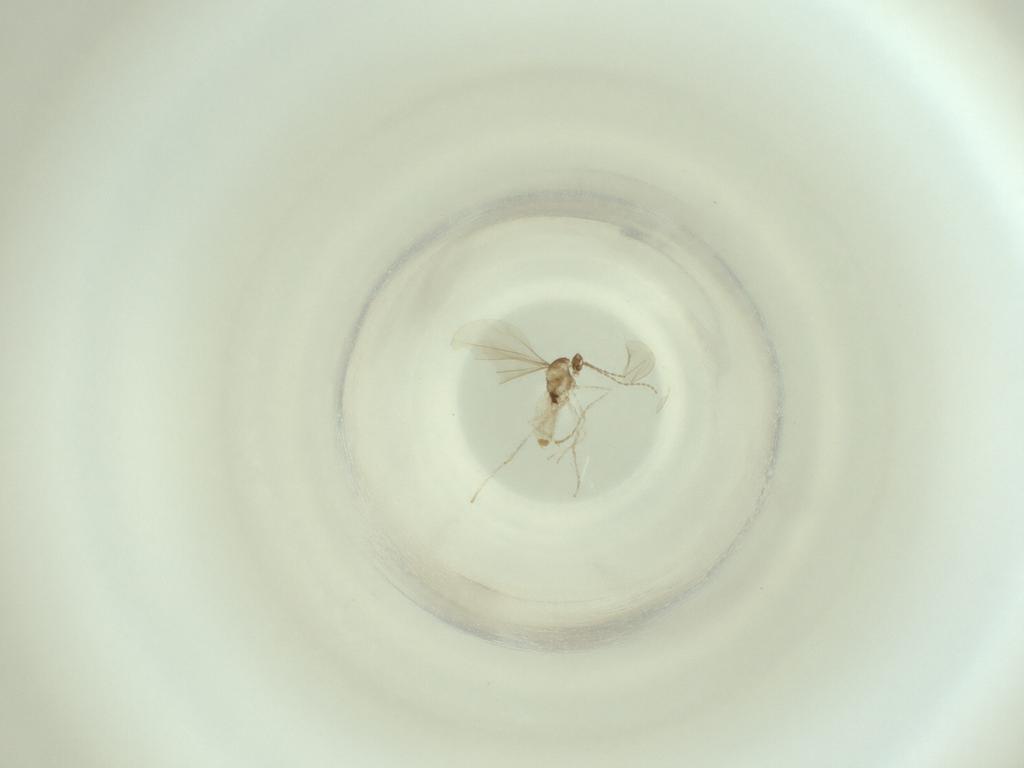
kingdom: Animalia
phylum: Arthropoda
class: Insecta
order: Diptera
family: Cecidomyiidae
